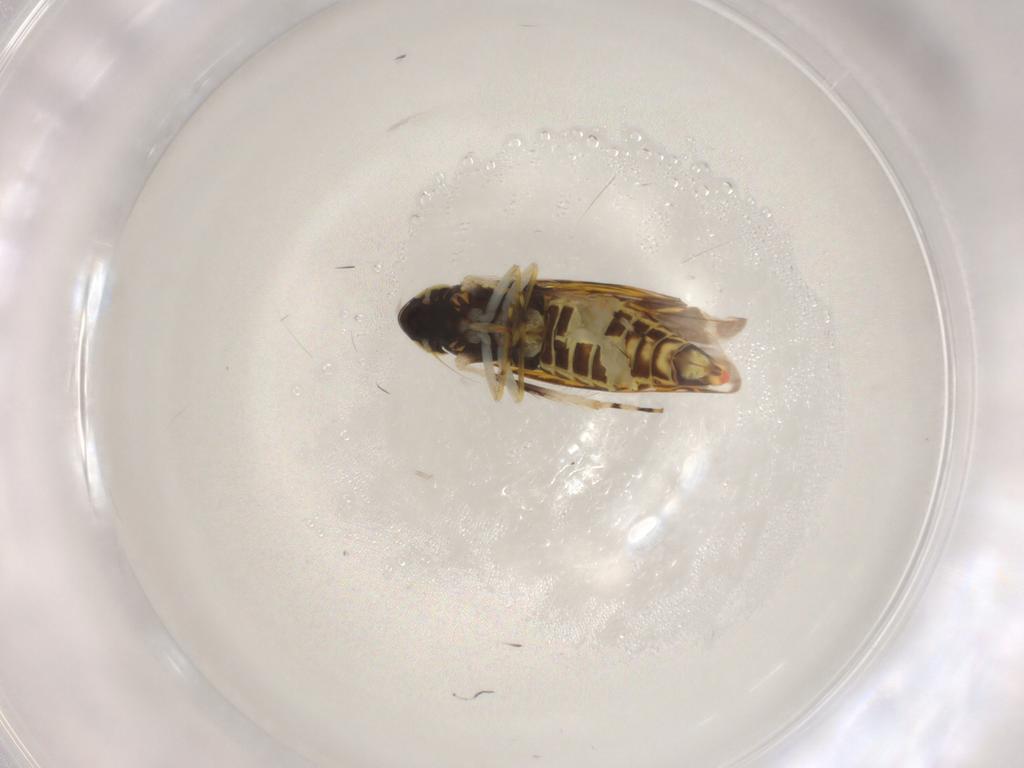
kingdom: Animalia
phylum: Arthropoda
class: Insecta
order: Hemiptera
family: Cicadellidae
